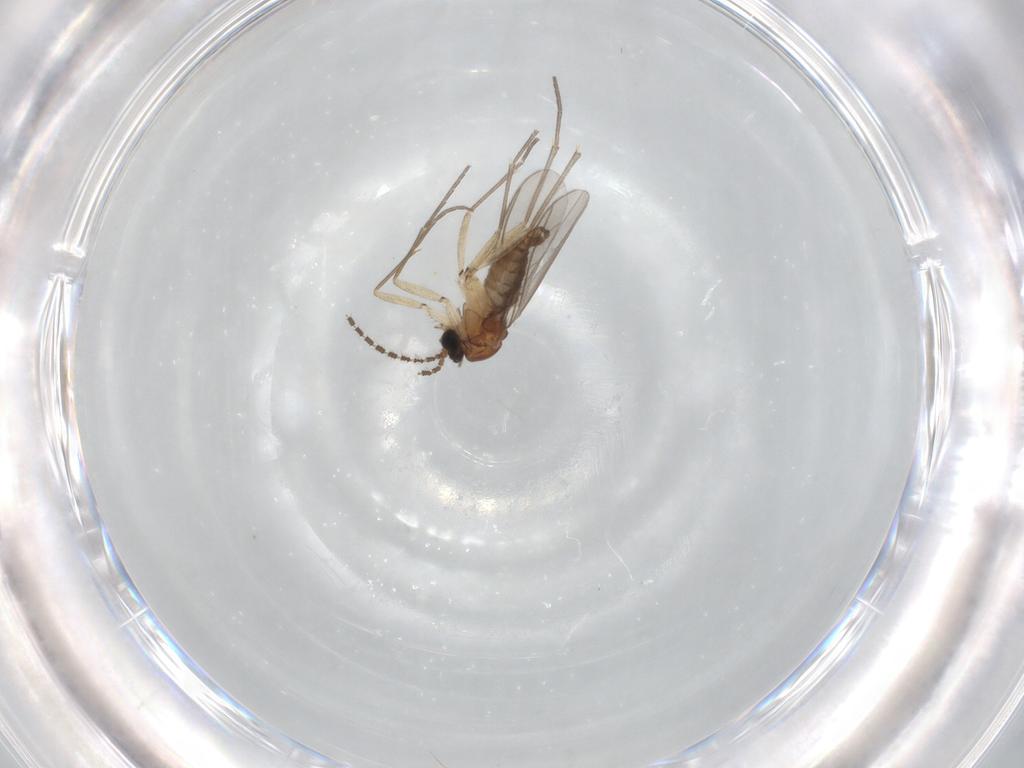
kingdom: Animalia
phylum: Arthropoda
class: Insecta
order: Diptera
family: Sciaridae
